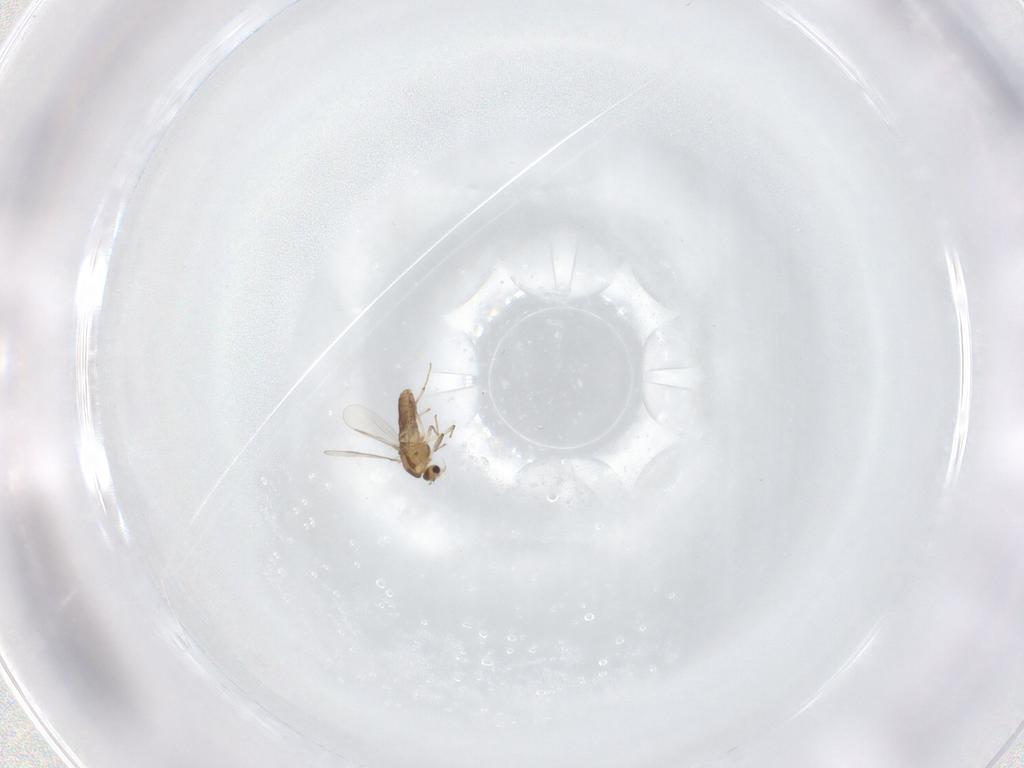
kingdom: Animalia
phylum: Arthropoda
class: Insecta
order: Diptera
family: Chironomidae
